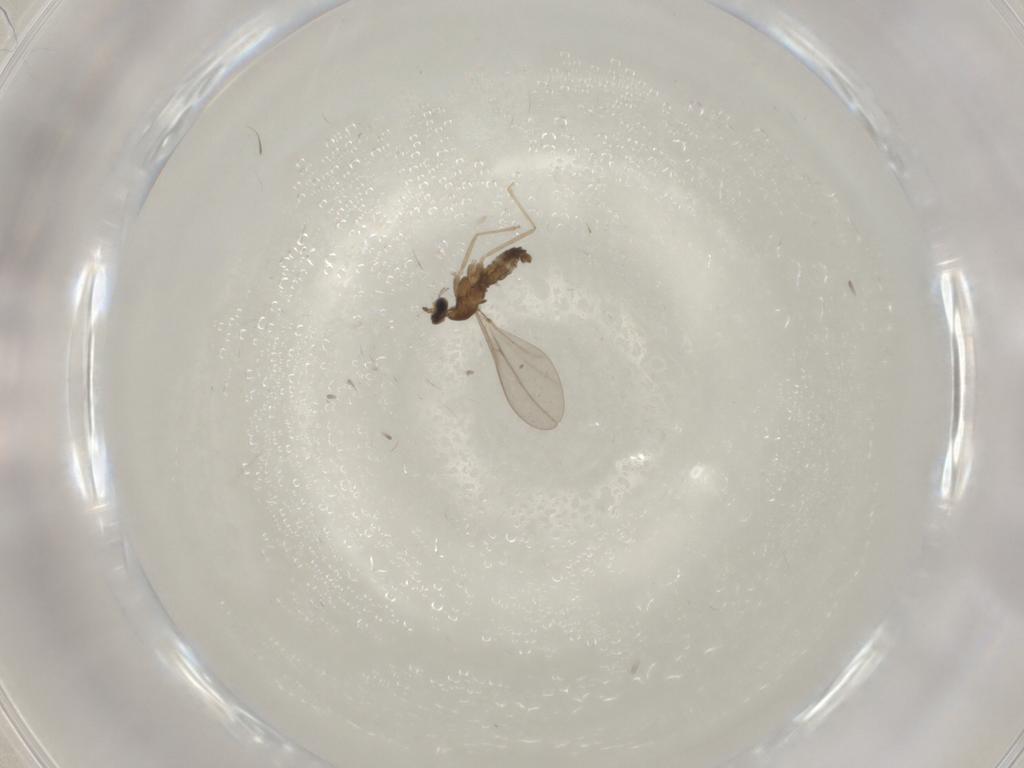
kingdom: Animalia
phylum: Arthropoda
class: Insecta
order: Diptera
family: Cecidomyiidae
